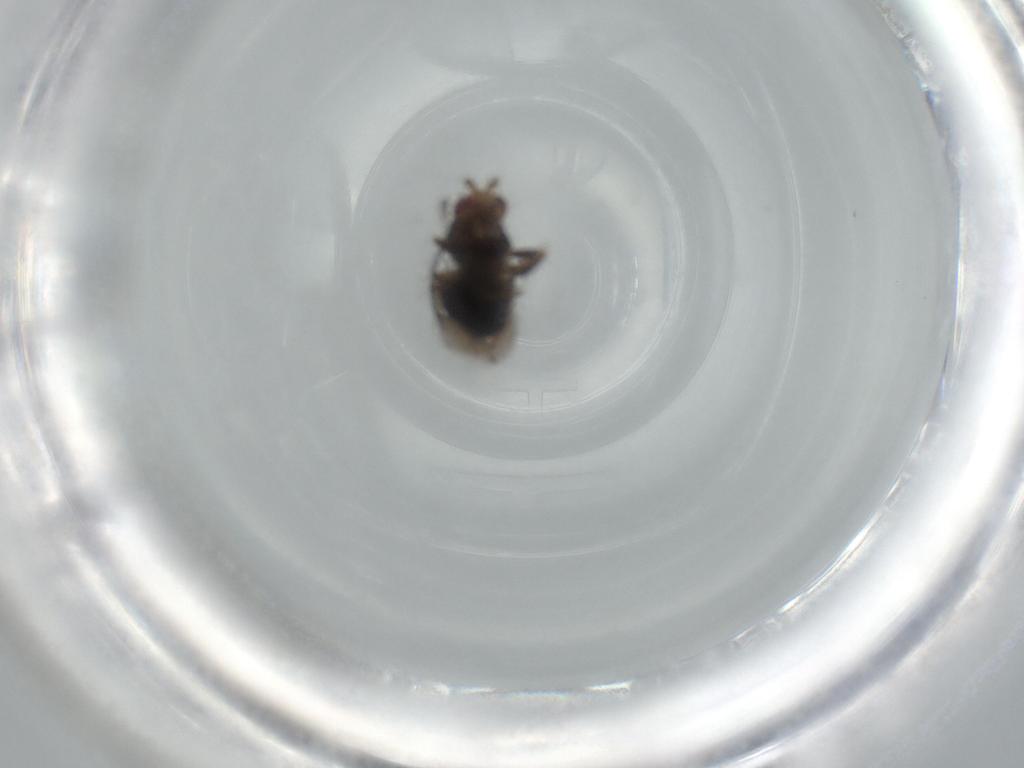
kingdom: Animalia
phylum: Arthropoda
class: Insecta
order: Diptera
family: Sphaeroceridae
